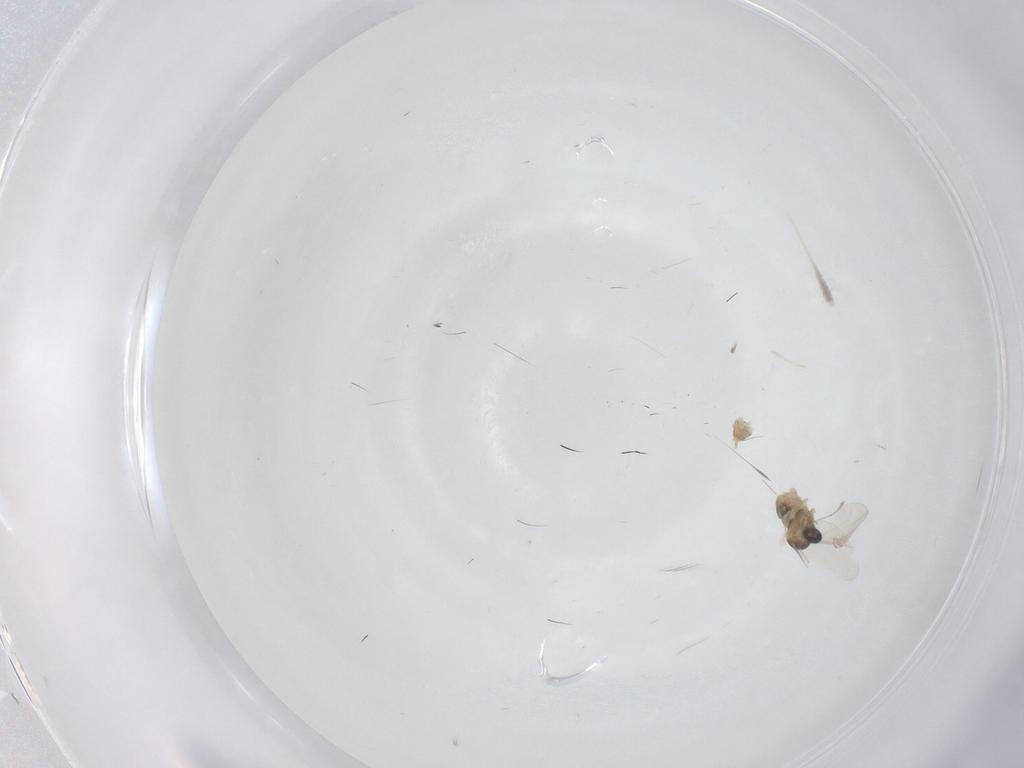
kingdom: Animalia
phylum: Arthropoda
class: Insecta
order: Diptera
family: Cecidomyiidae
